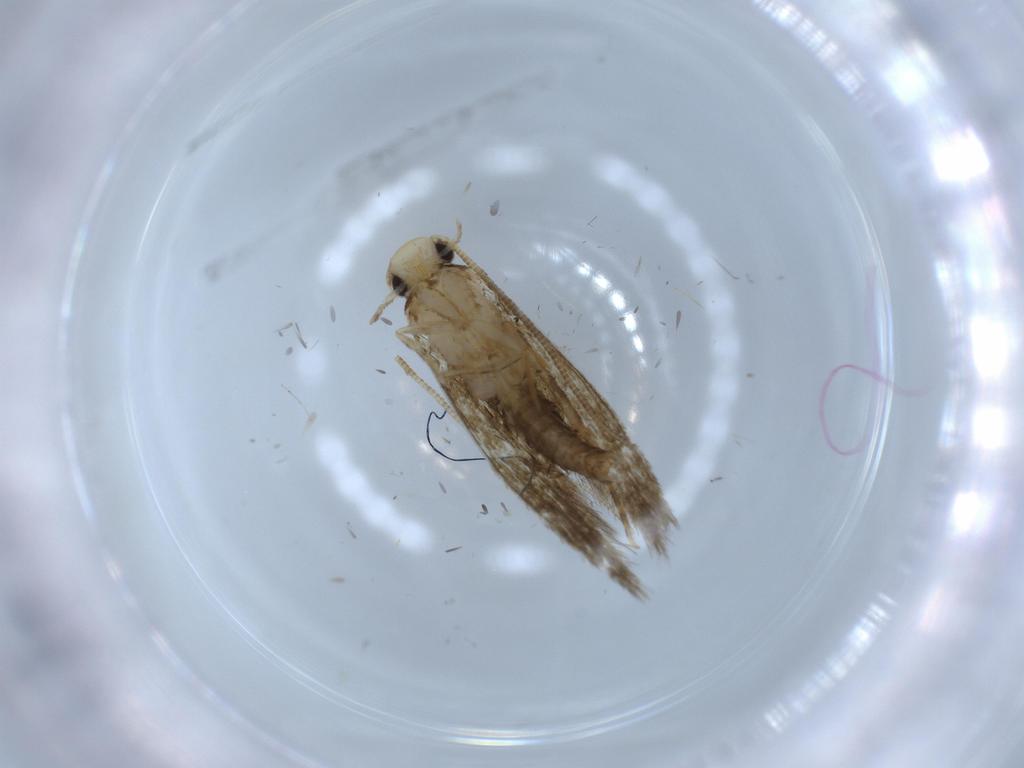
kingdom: Animalia
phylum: Arthropoda
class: Insecta
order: Lepidoptera
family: Tineidae
